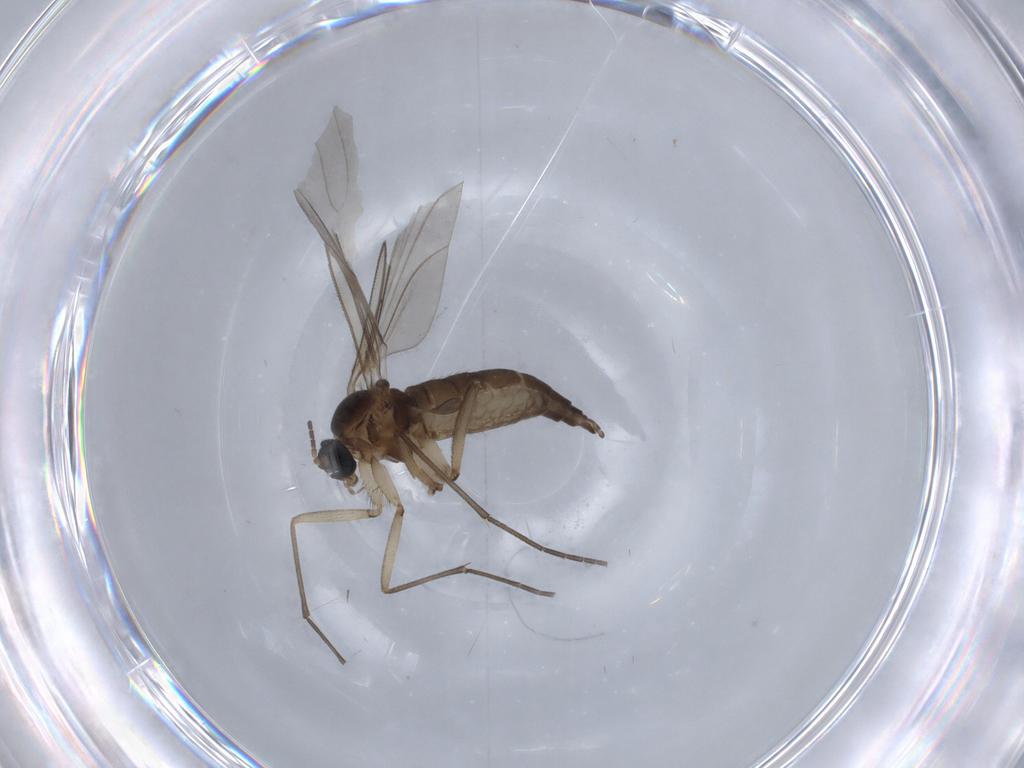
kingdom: Animalia
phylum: Arthropoda
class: Insecta
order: Diptera
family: Sciaridae
